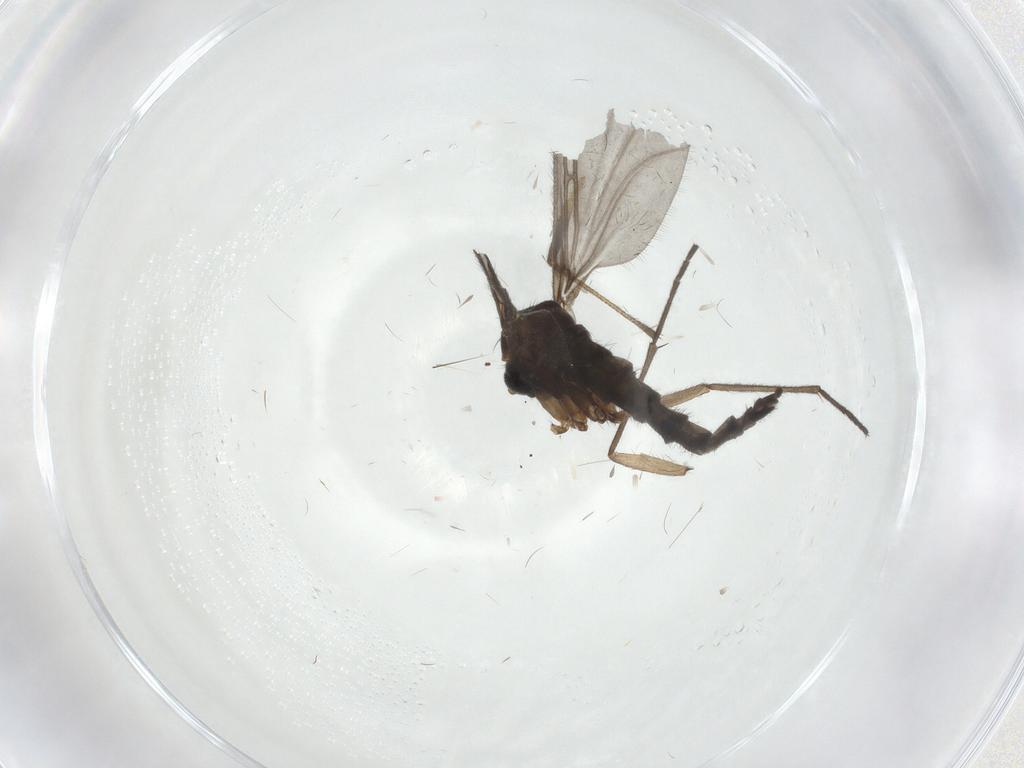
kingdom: Animalia
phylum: Arthropoda
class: Insecta
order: Diptera
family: Sciaridae
